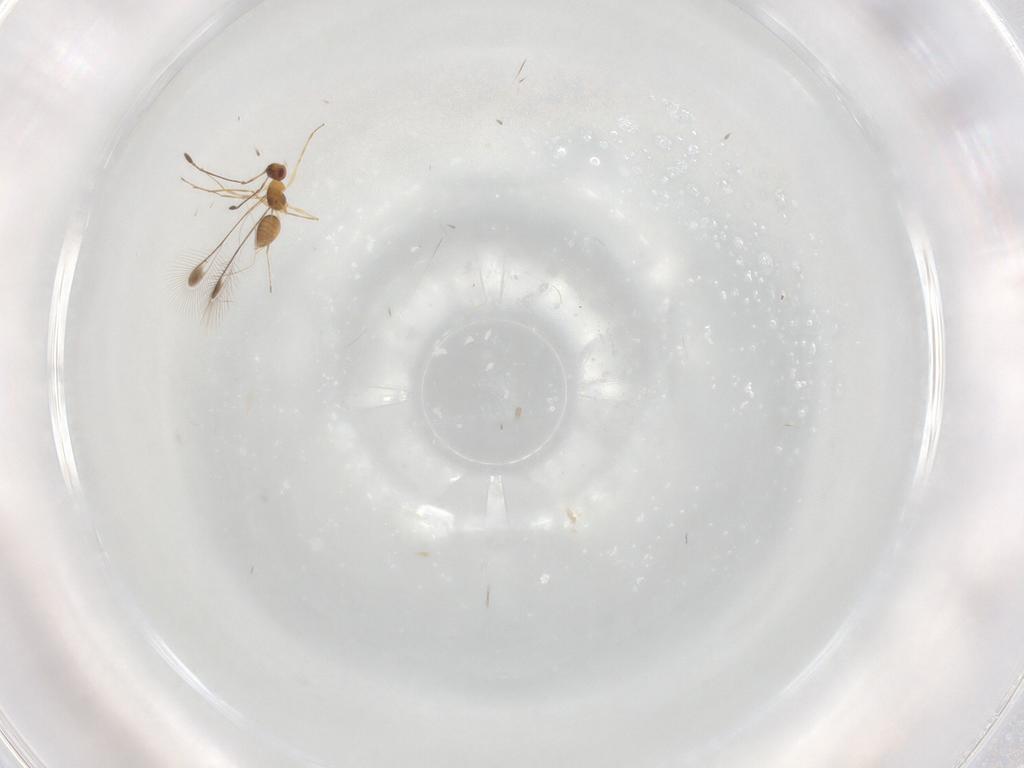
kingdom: Animalia
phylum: Arthropoda
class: Insecta
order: Hymenoptera
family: Mymaridae
